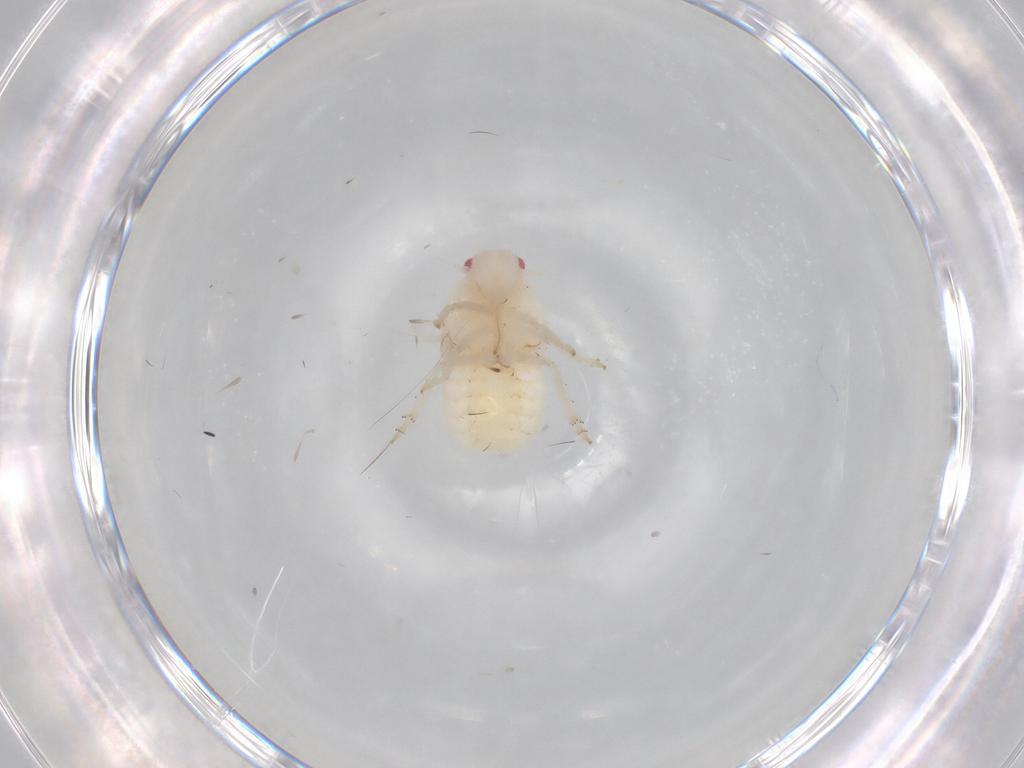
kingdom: Animalia
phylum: Arthropoda
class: Insecta
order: Hemiptera
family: Flatidae
